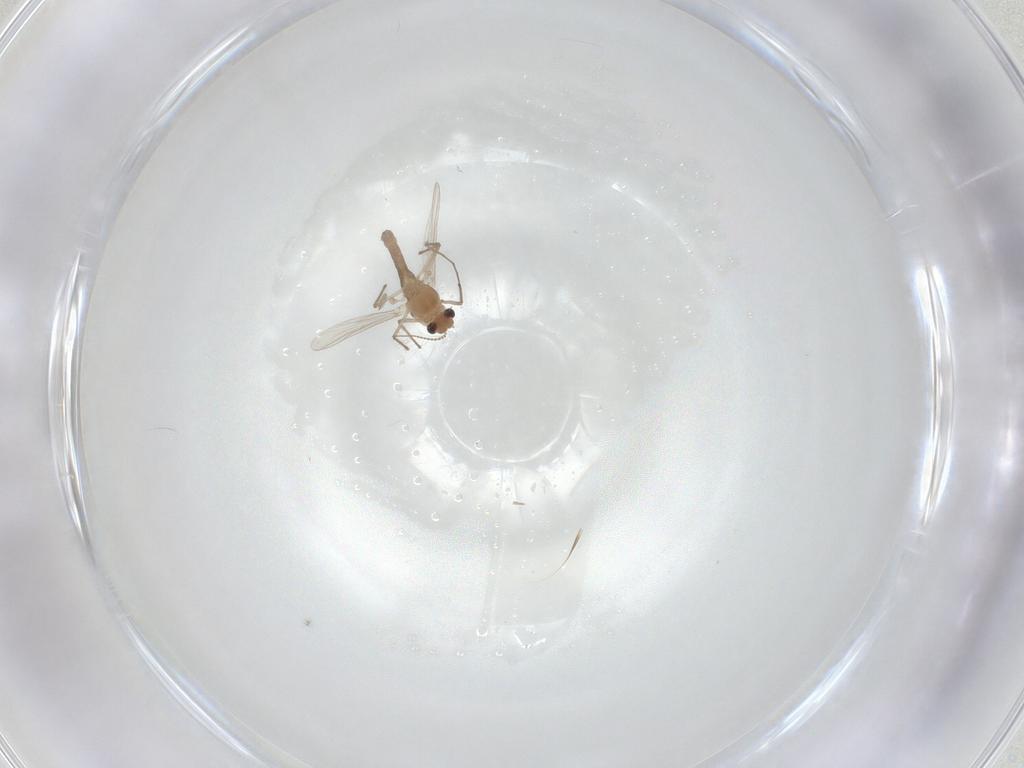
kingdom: Animalia
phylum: Arthropoda
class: Insecta
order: Diptera
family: Chironomidae
